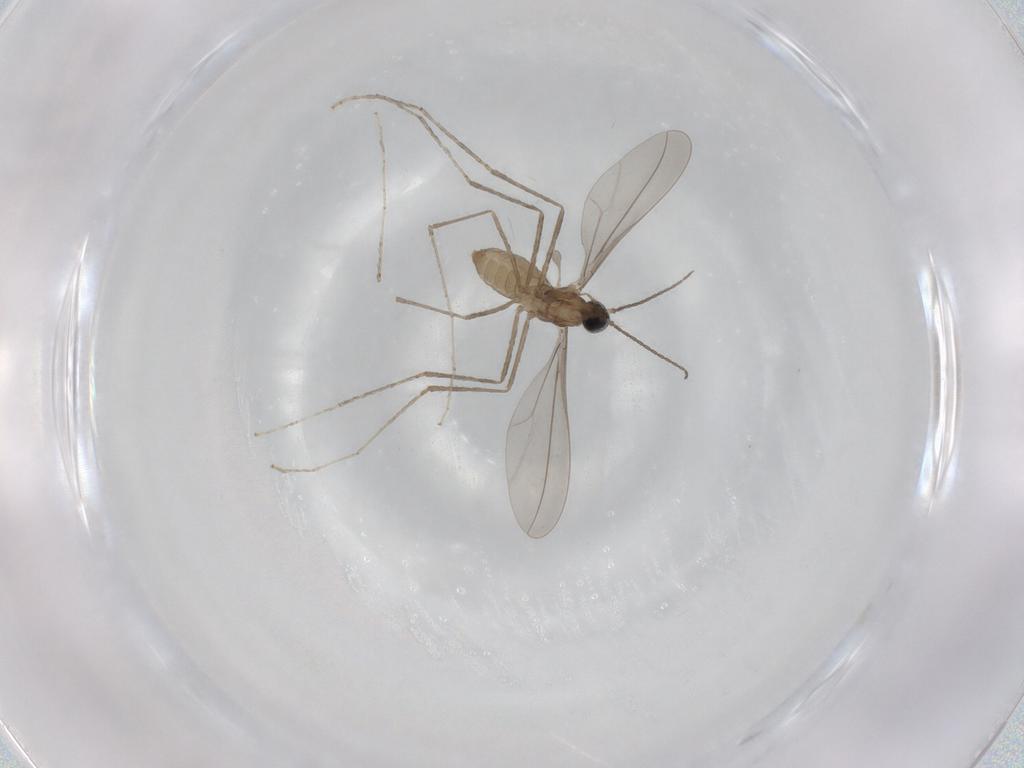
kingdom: Animalia
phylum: Arthropoda
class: Insecta
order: Diptera
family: Cecidomyiidae
